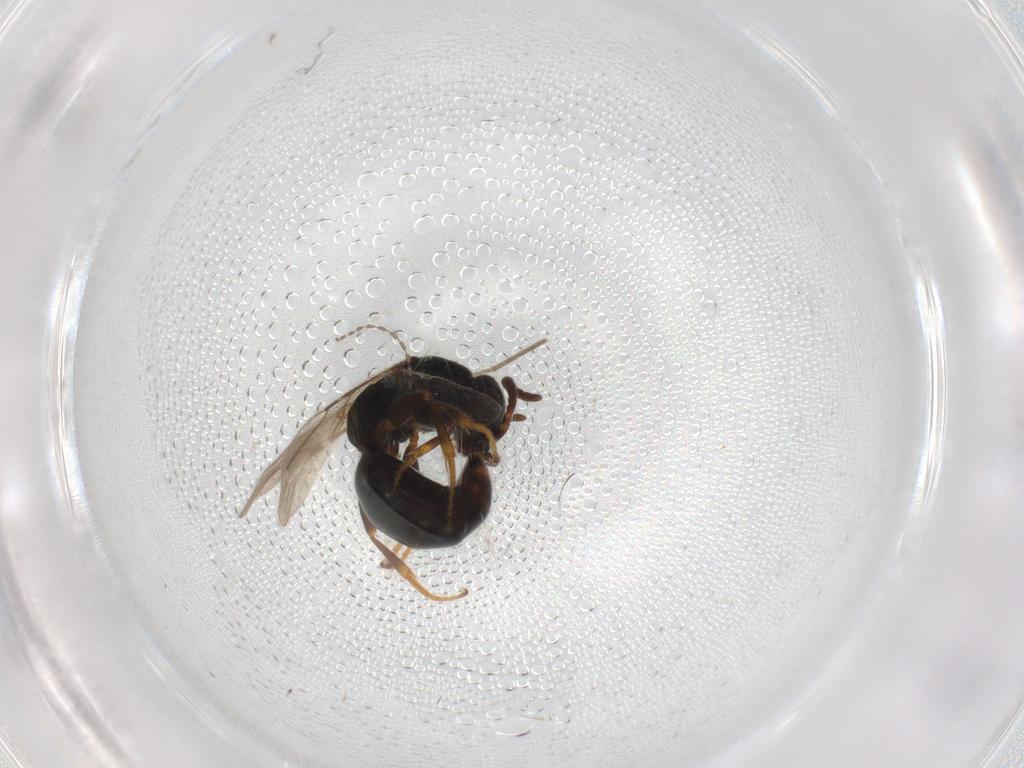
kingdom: Animalia
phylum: Arthropoda
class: Insecta
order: Hymenoptera
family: Bethylidae
